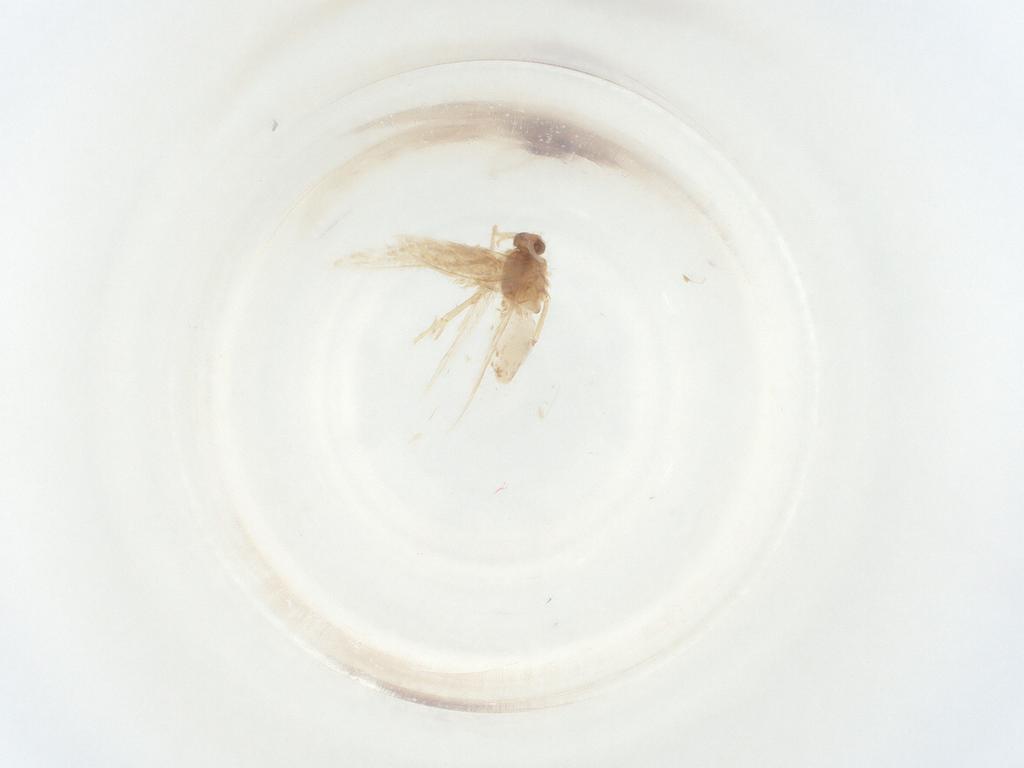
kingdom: Animalia
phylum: Arthropoda
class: Insecta
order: Lepidoptera
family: Nepticulidae
